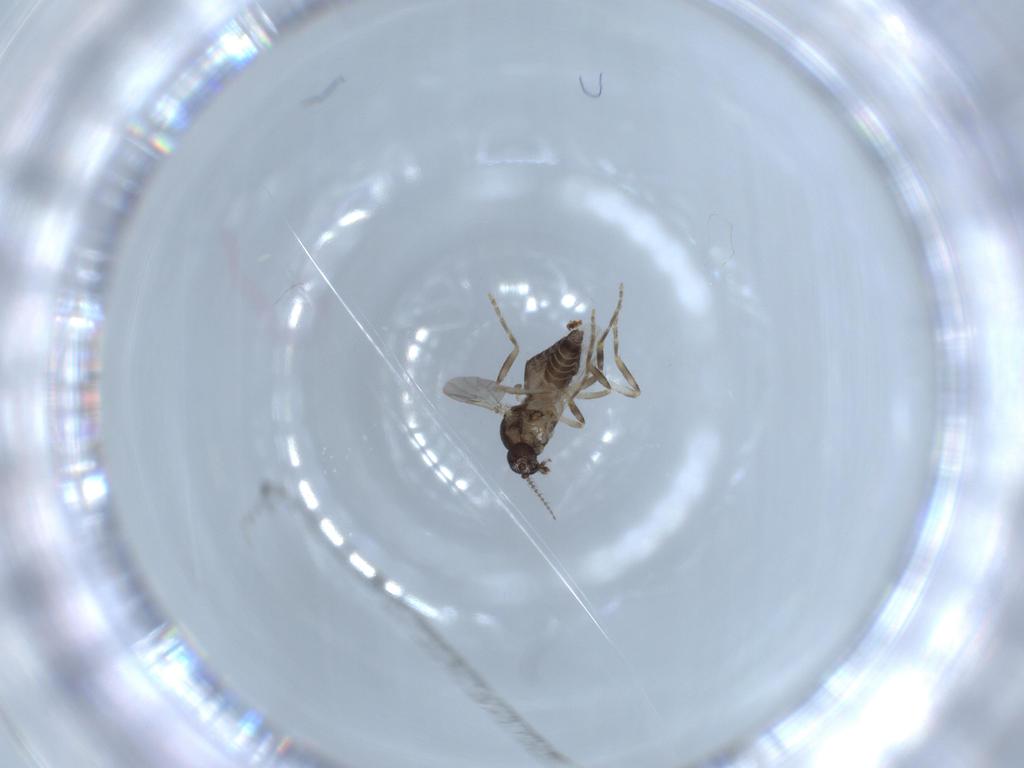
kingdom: Animalia
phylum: Arthropoda
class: Insecta
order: Diptera
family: Ceratopogonidae
